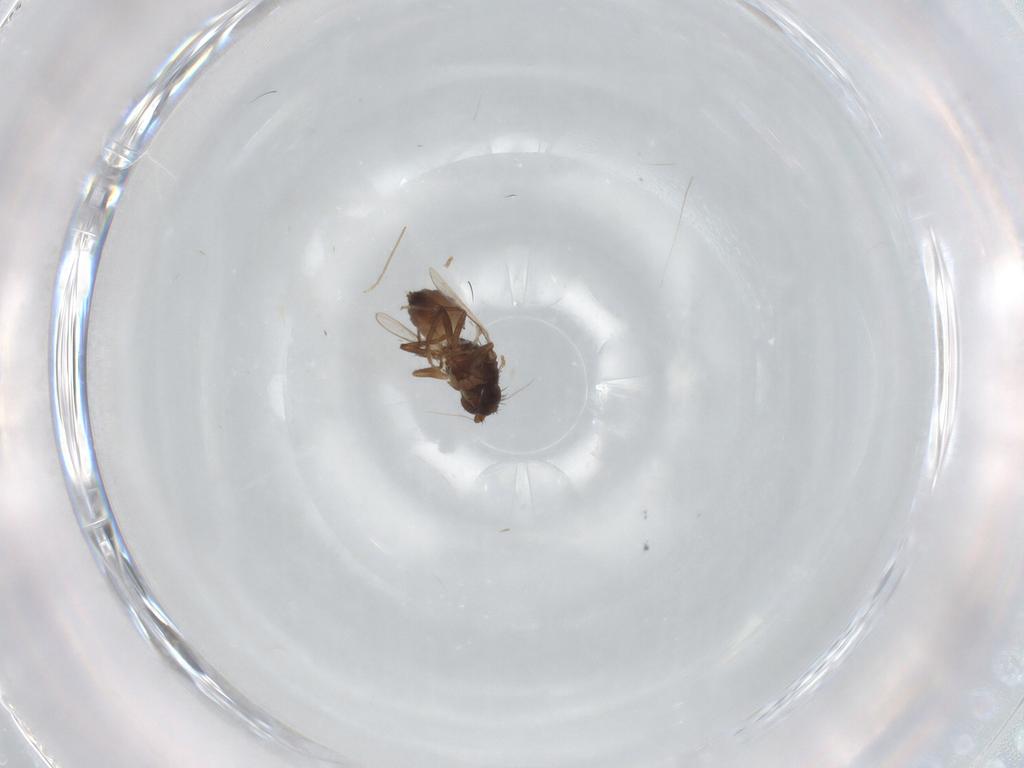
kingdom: Animalia
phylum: Arthropoda
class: Insecta
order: Diptera
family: Sphaeroceridae
